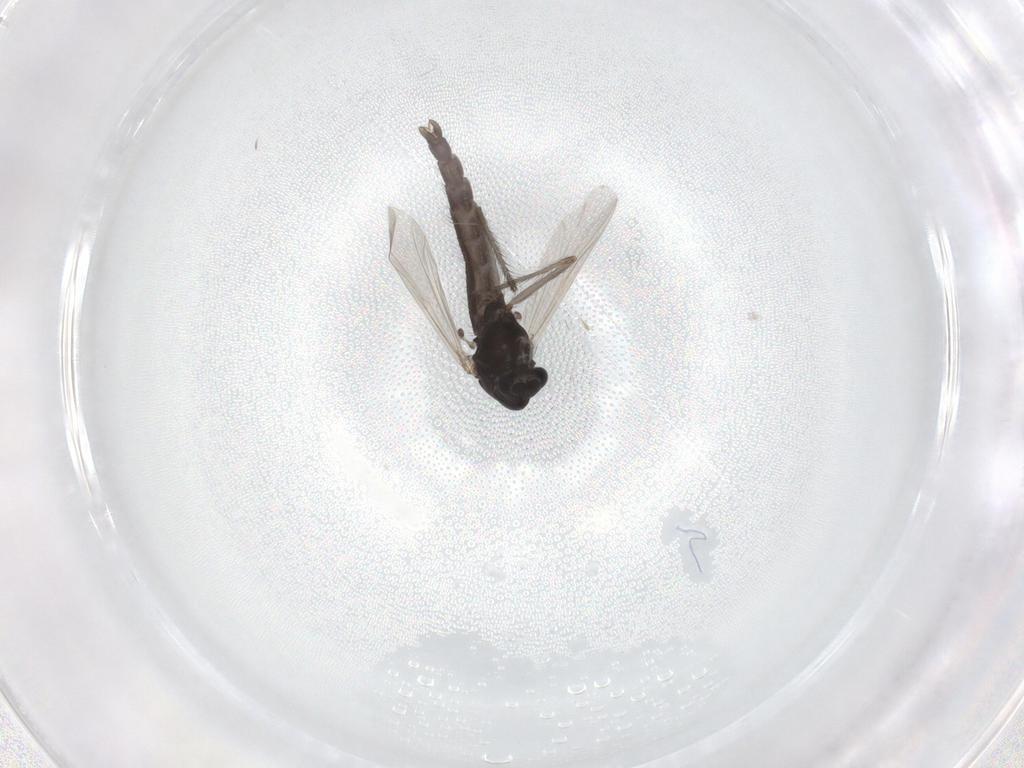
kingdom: Animalia
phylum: Arthropoda
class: Insecta
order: Diptera
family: Chironomidae
